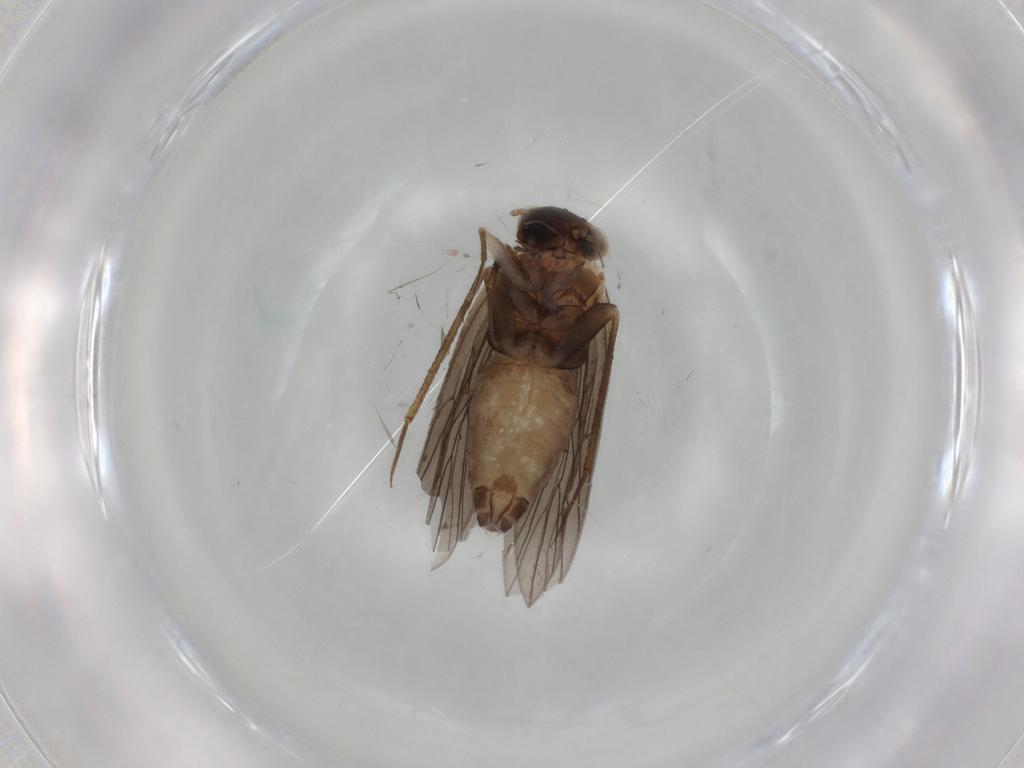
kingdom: Animalia
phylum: Arthropoda
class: Insecta
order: Psocodea
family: Lepidopsocidae
